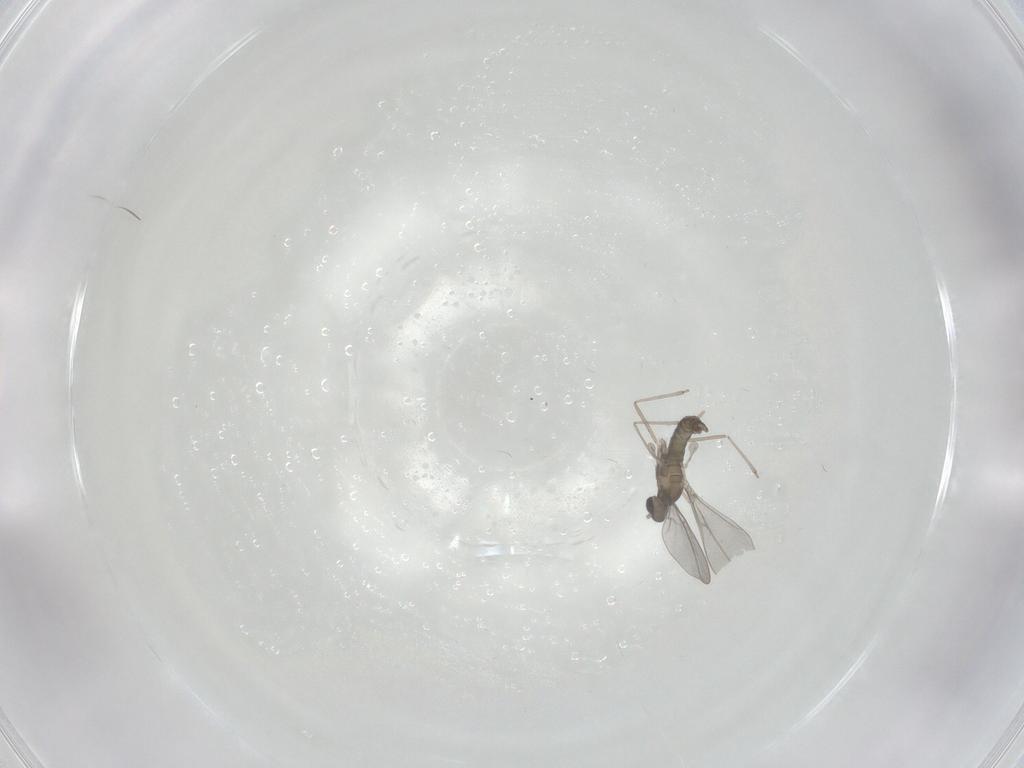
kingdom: Animalia
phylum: Arthropoda
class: Insecta
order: Diptera
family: Cecidomyiidae
